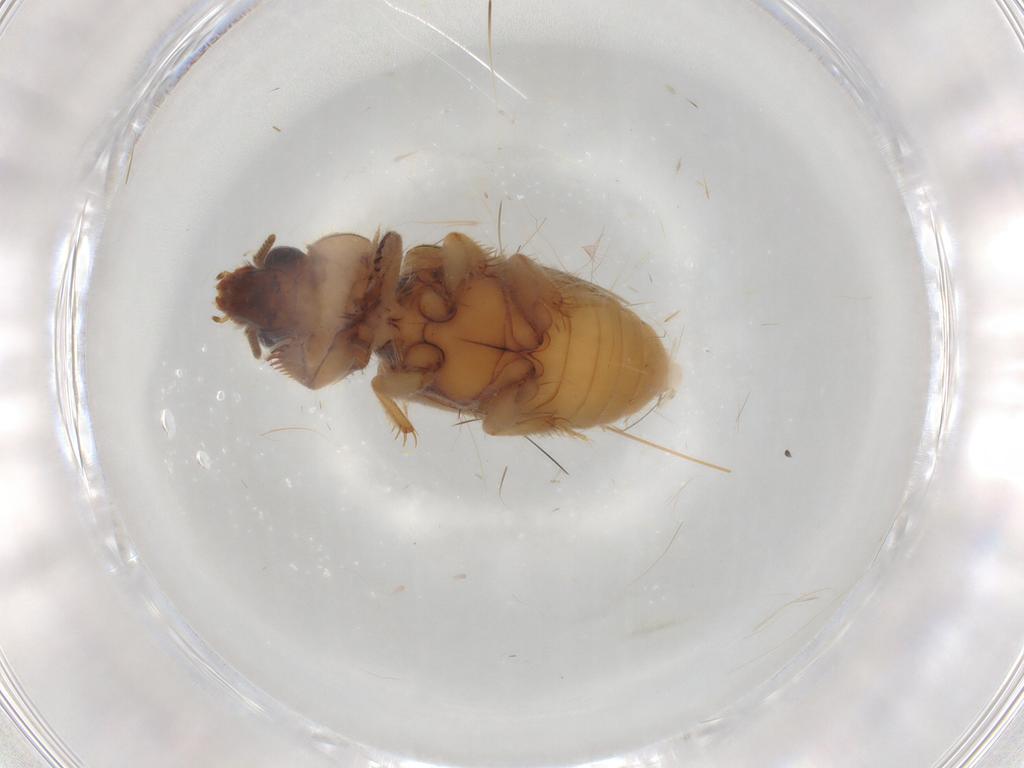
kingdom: Animalia
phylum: Arthropoda
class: Insecta
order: Coleoptera
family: Heteroceridae
